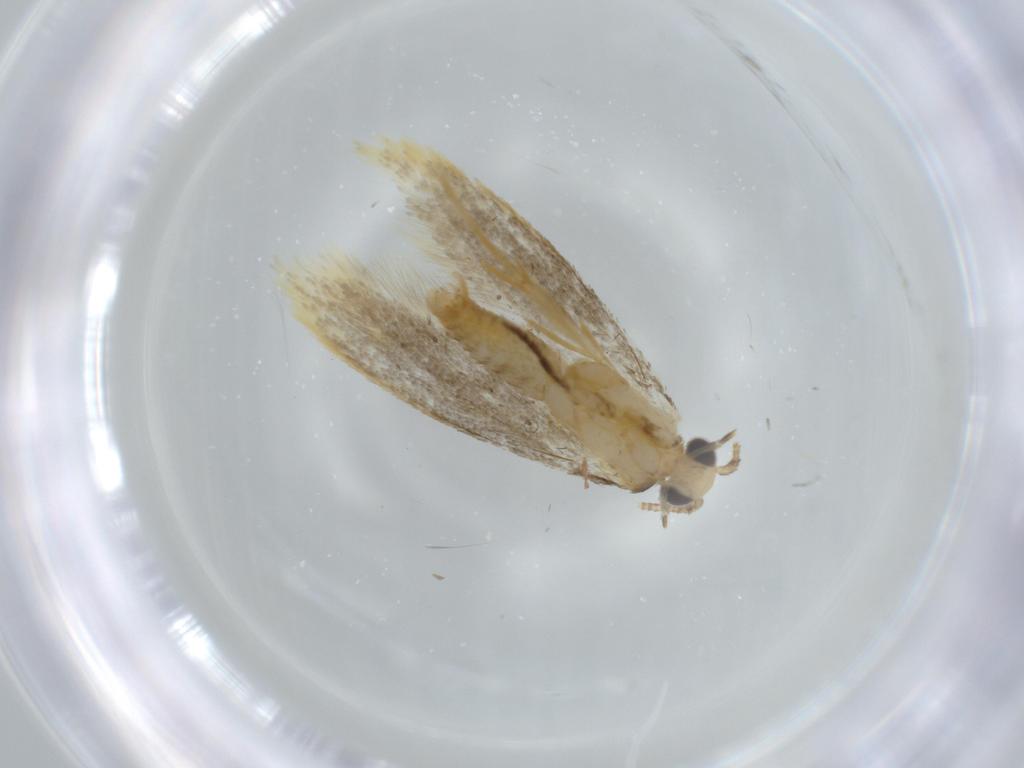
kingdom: Animalia
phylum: Arthropoda
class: Insecta
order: Lepidoptera
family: Tineidae
